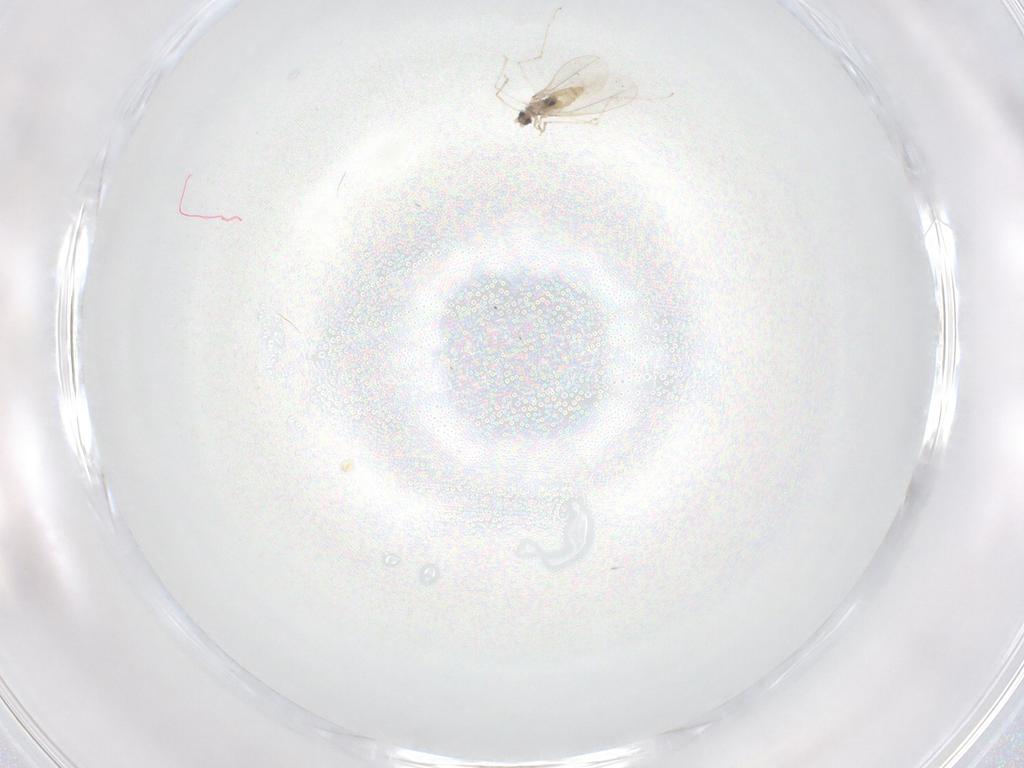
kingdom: Animalia
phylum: Arthropoda
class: Insecta
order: Diptera
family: Cecidomyiidae
